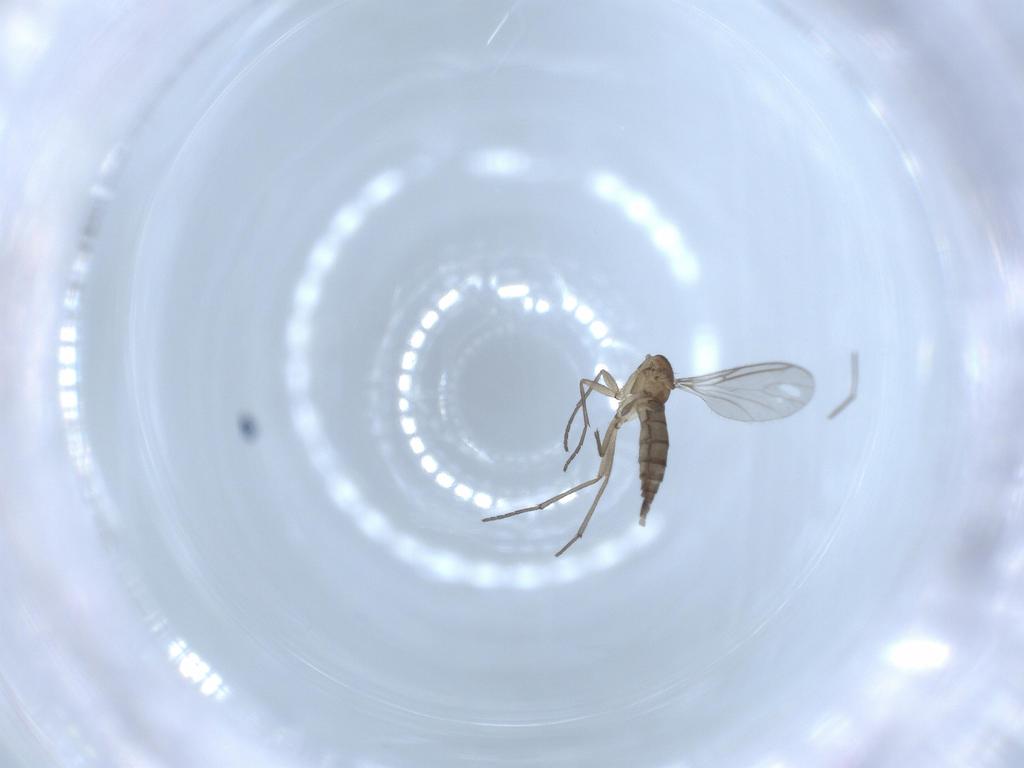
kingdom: Animalia
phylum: Arthropoda
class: Insecta
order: Diptera
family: Sciaridae
